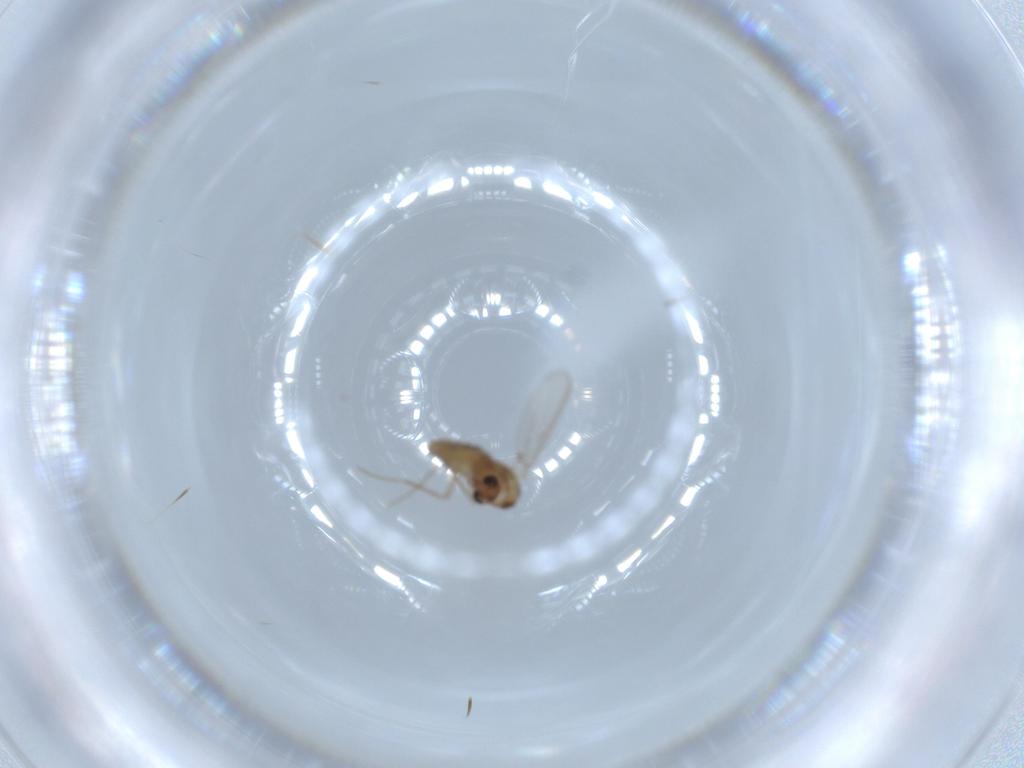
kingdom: Animalia
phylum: Arthropoda
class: Insecta
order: Diptera
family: Chironomidae
